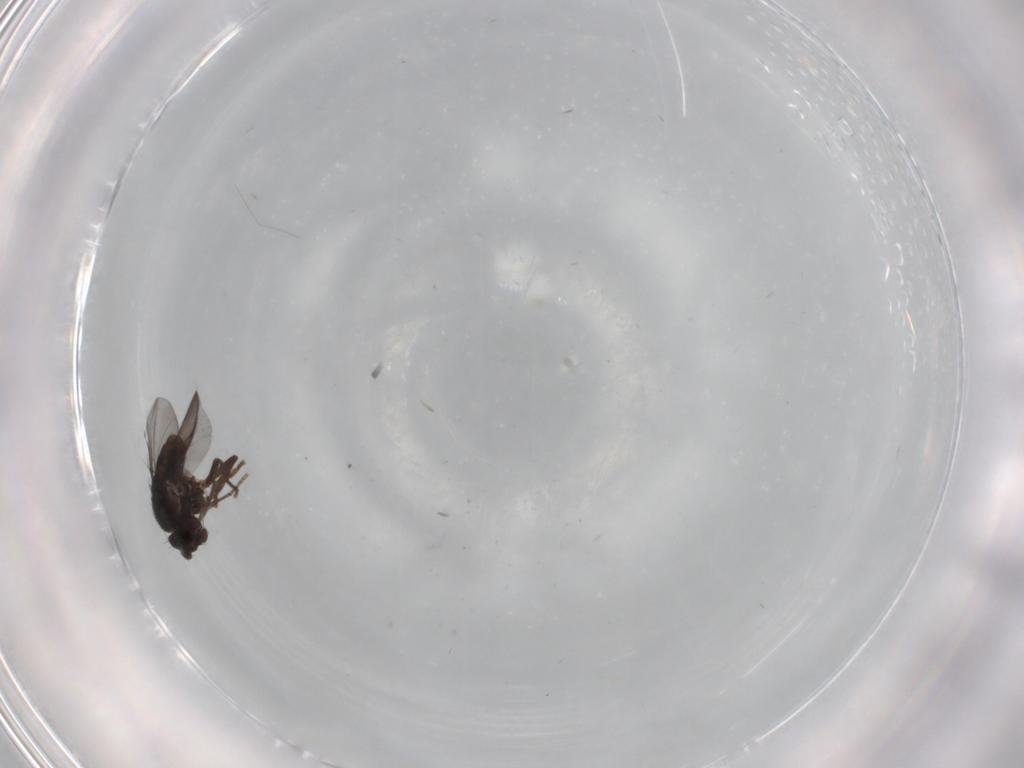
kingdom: Animalia
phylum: Arthropoda
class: Insecta
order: Diptera
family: Sphaeroceridae
